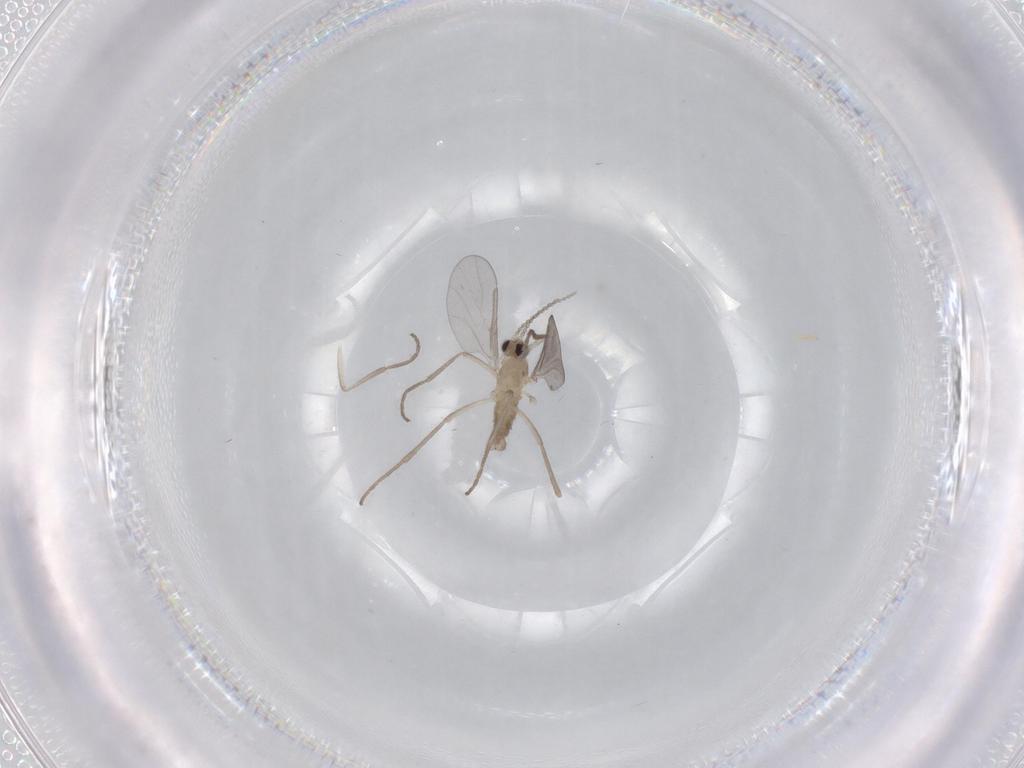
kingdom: Animalia
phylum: Arthropoda
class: Insecta
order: Diptera
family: Cecidomyiidae
